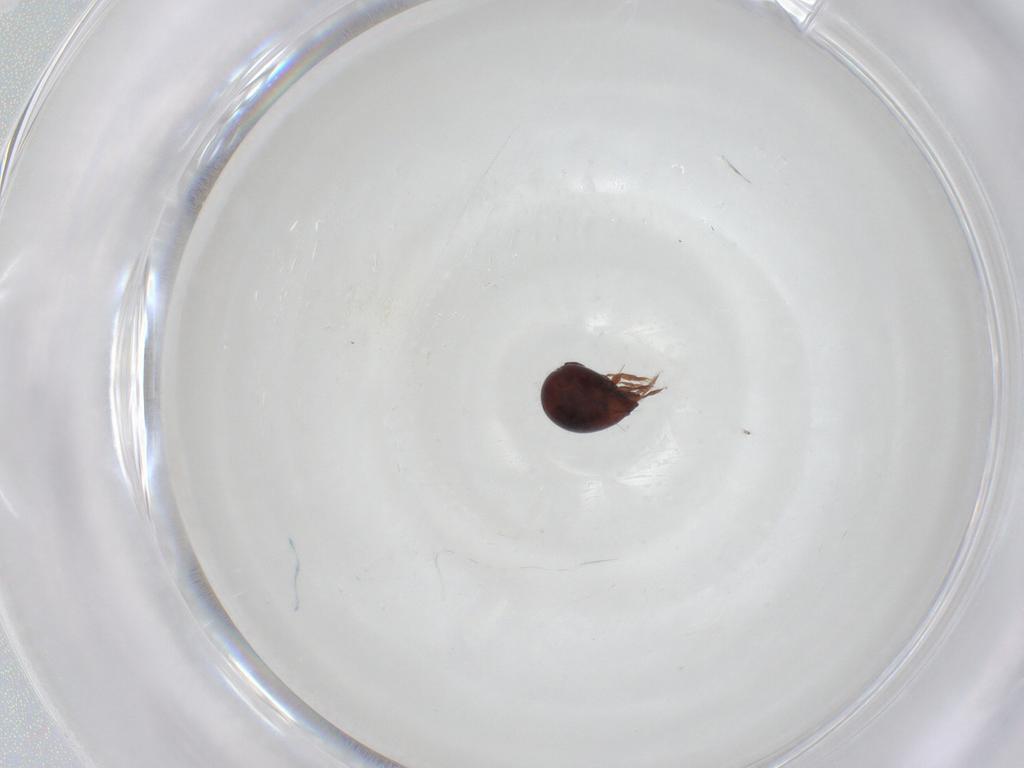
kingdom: Animalia
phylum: Arthropoda
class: Arachnida
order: Sarcoptiformes
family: Mochlozetidae
